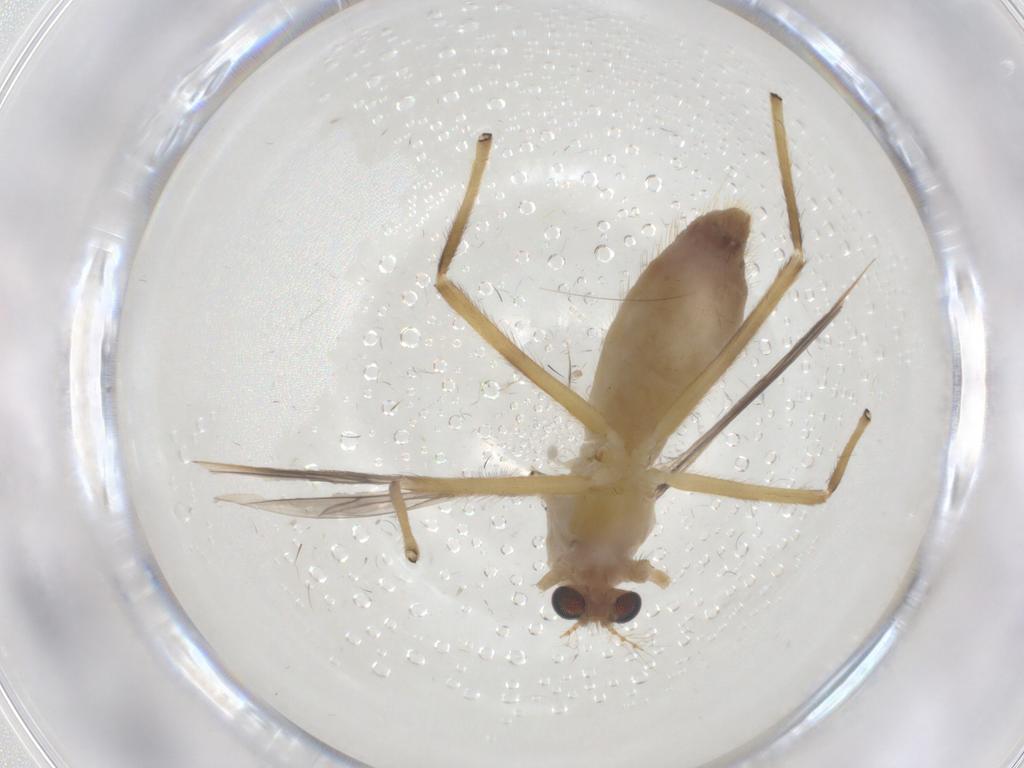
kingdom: Animalia
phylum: Arthropoda
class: Insecta
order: Diptera
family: Chironomidae
